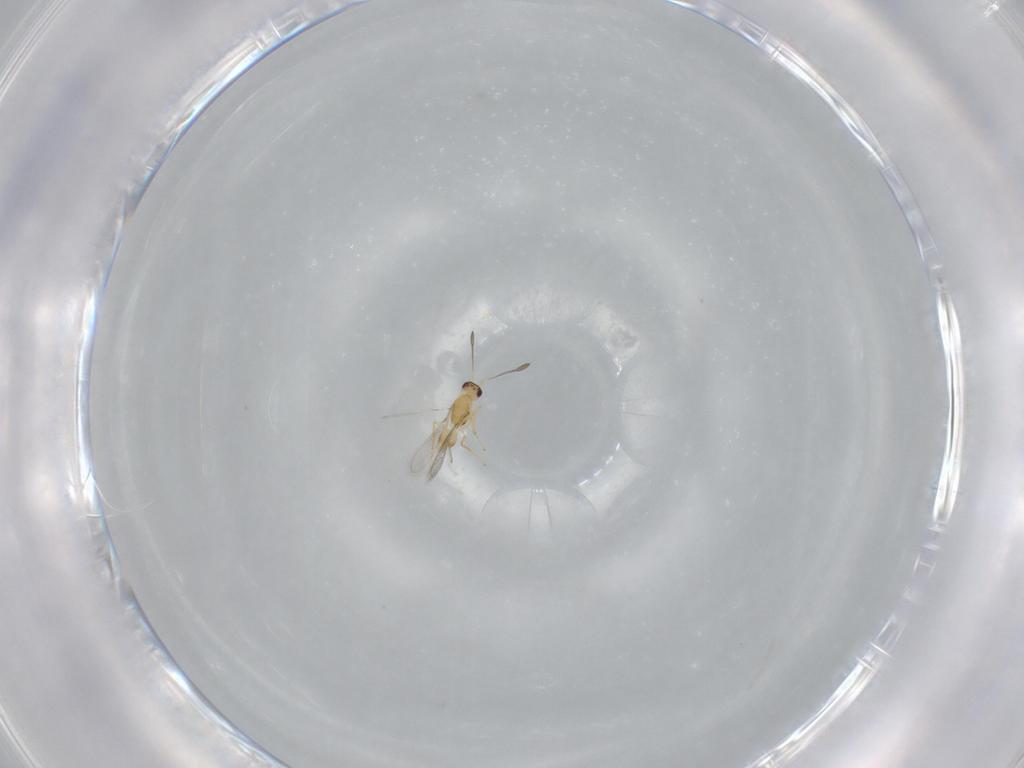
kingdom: Animalia
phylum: Arthropoda
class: Insecta
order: Hymenoptera
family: Mymaridae
